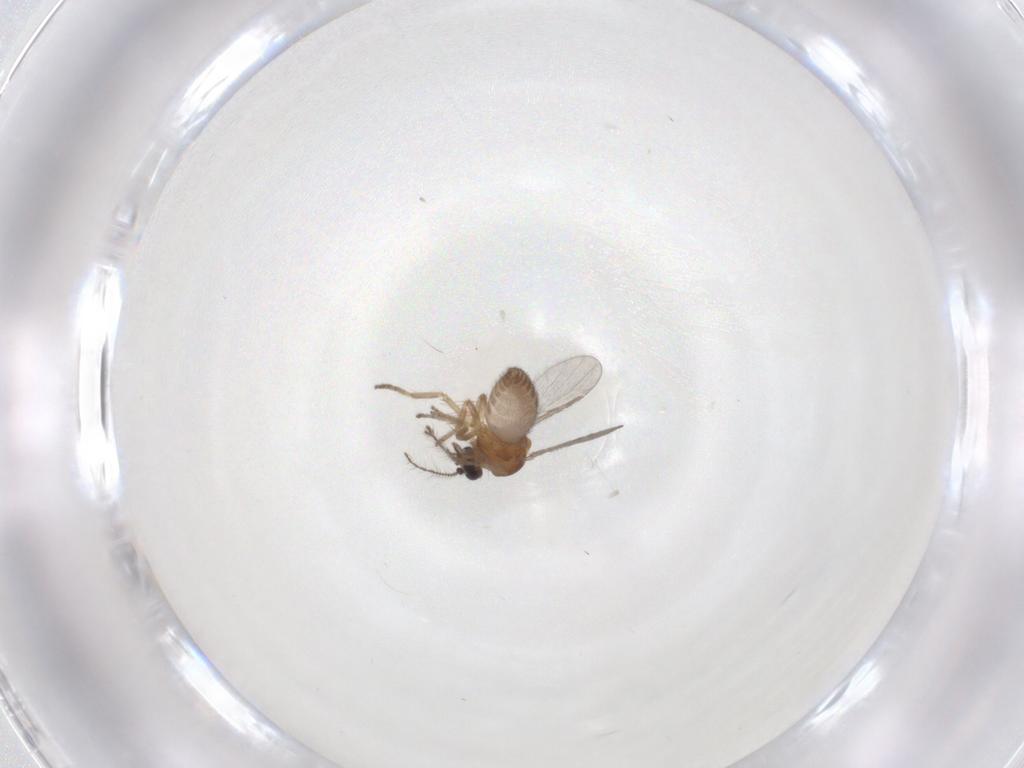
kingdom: Animalia
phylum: Arthropoda
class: Insecta
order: Diptera
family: Ceratopogonidae
